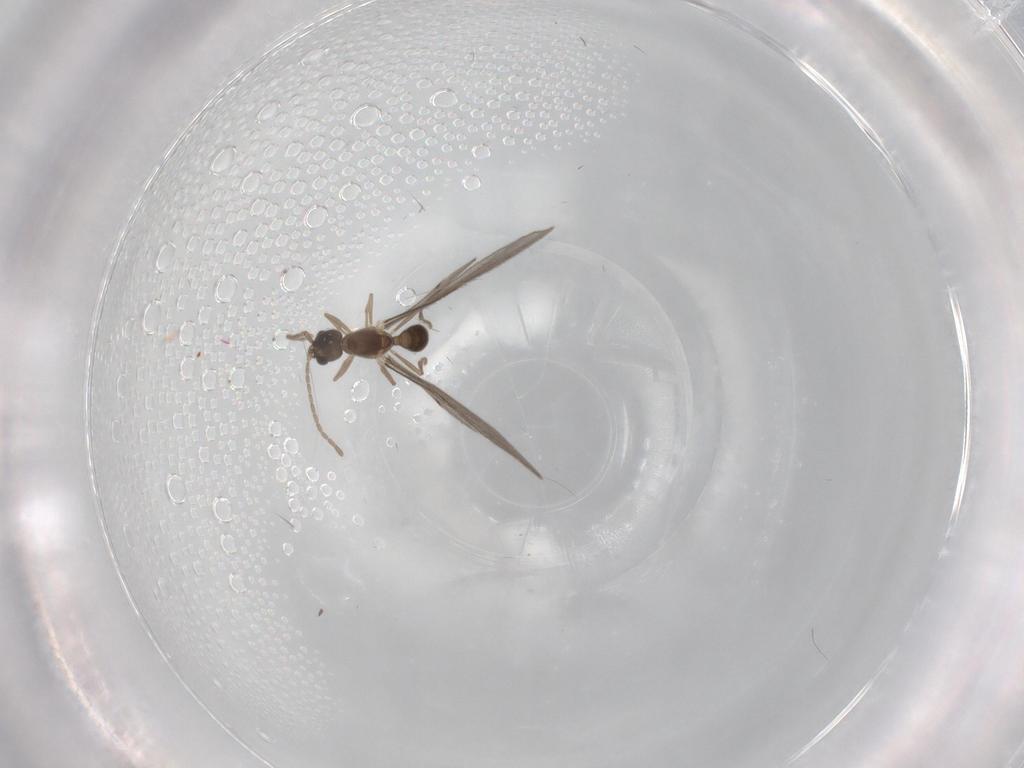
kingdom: Animalia
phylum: Arthropoda
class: Insecta
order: Hymenoptera
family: Formicidae
